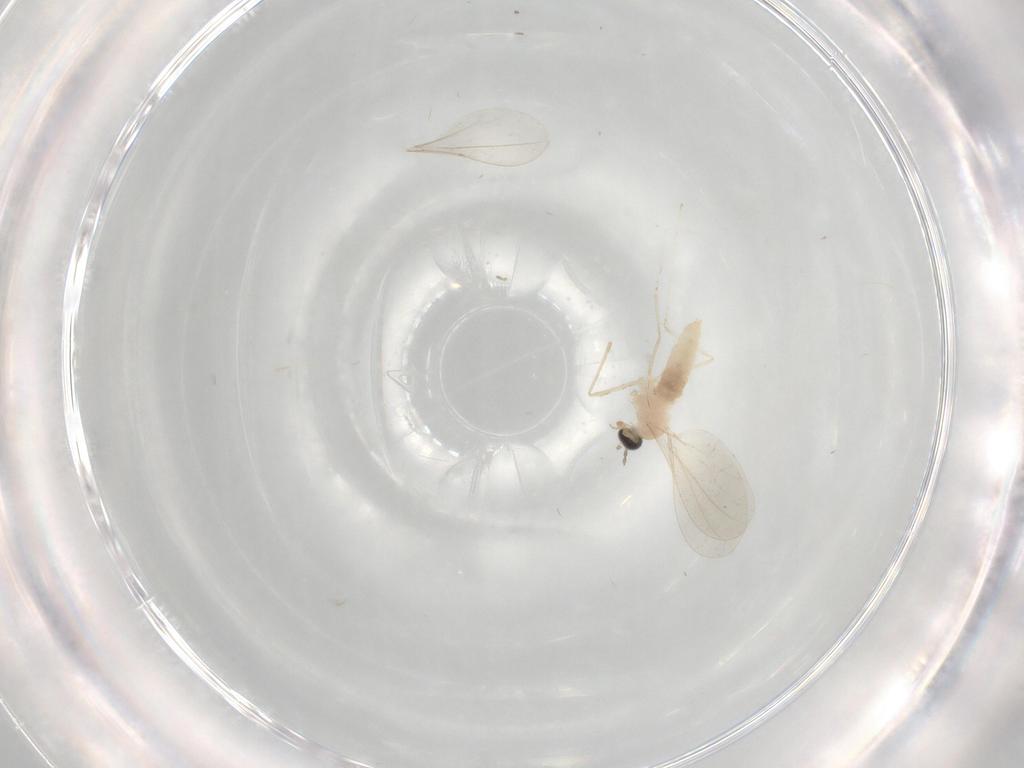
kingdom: Animalia
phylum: Arthropoda
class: Insecta
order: Diptera
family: Cecidomyiidae
